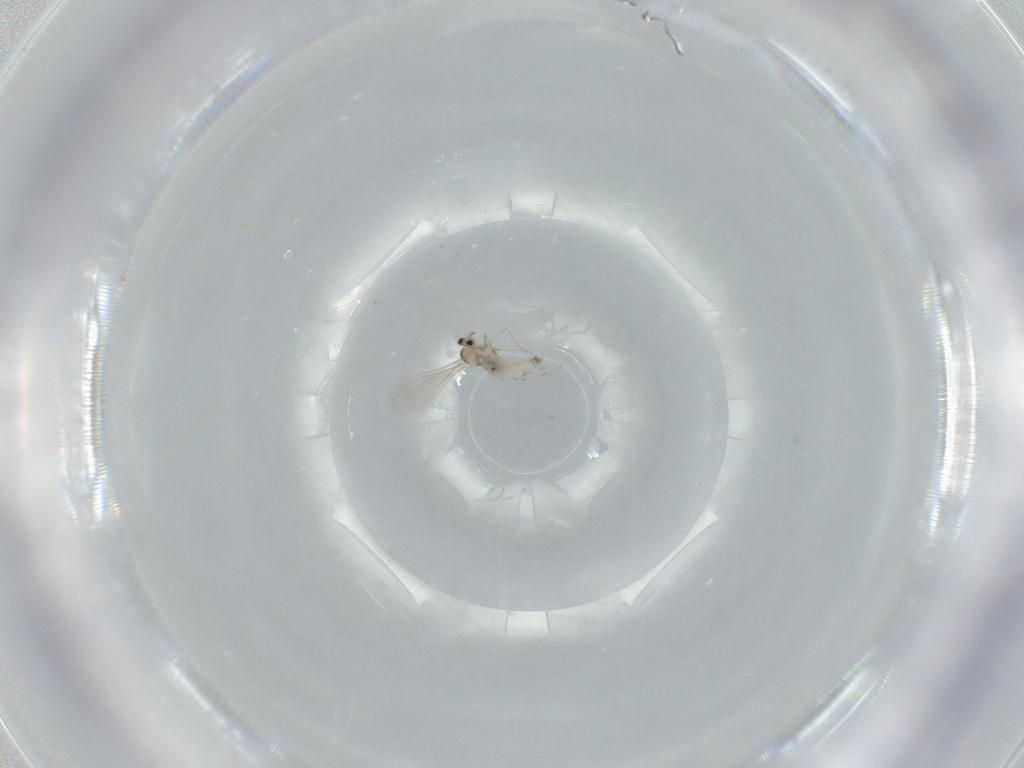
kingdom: Animalia
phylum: Arthropoda
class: Insecta
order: Diptera
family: Cecidomyiidae
